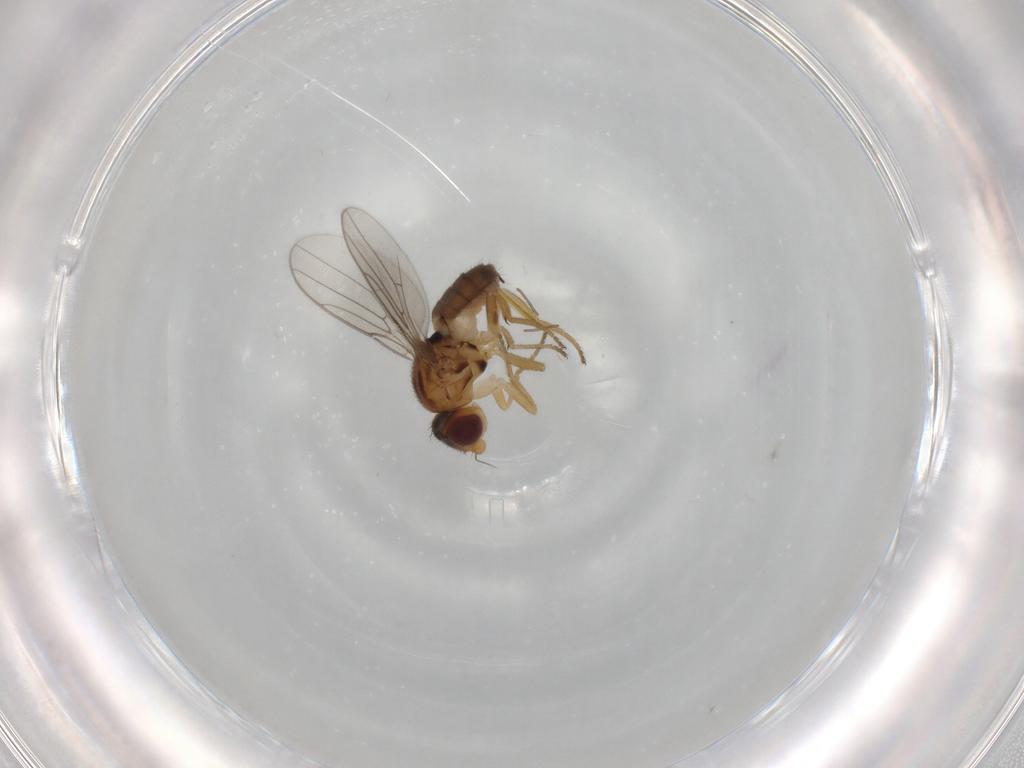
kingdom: Animalia
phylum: Arthropoda
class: Insecta
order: Diptera
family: Chloropidae
